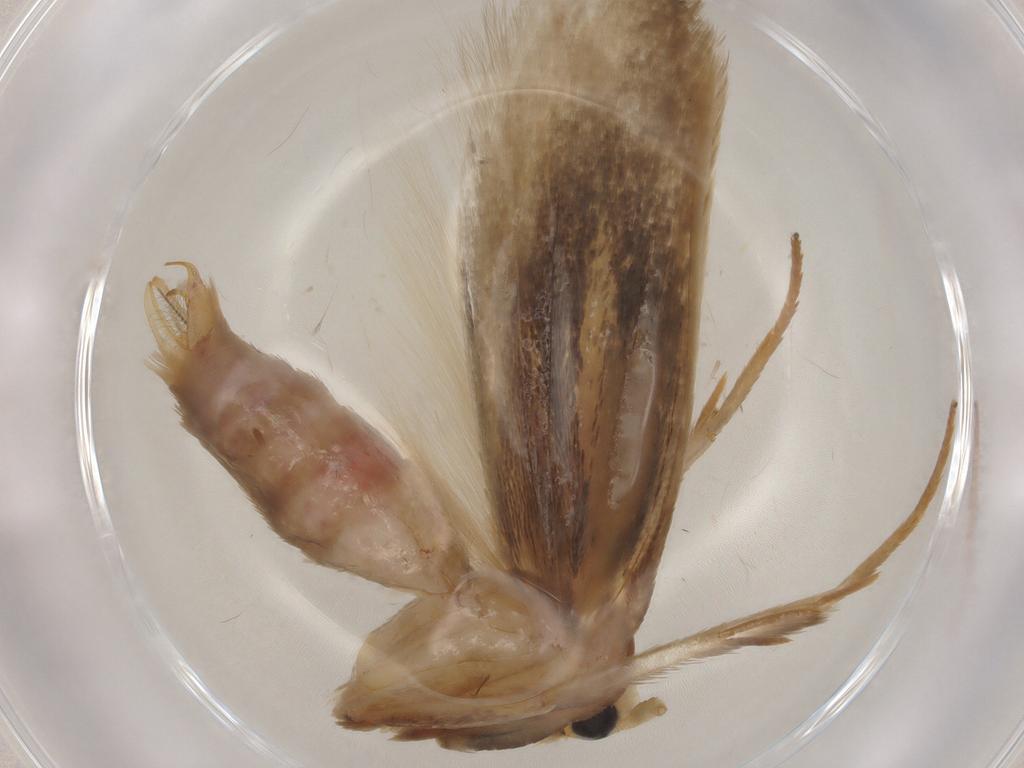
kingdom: Animalia
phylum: Arthropoda
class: Insecta
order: Lepidoptera
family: Geometridae
